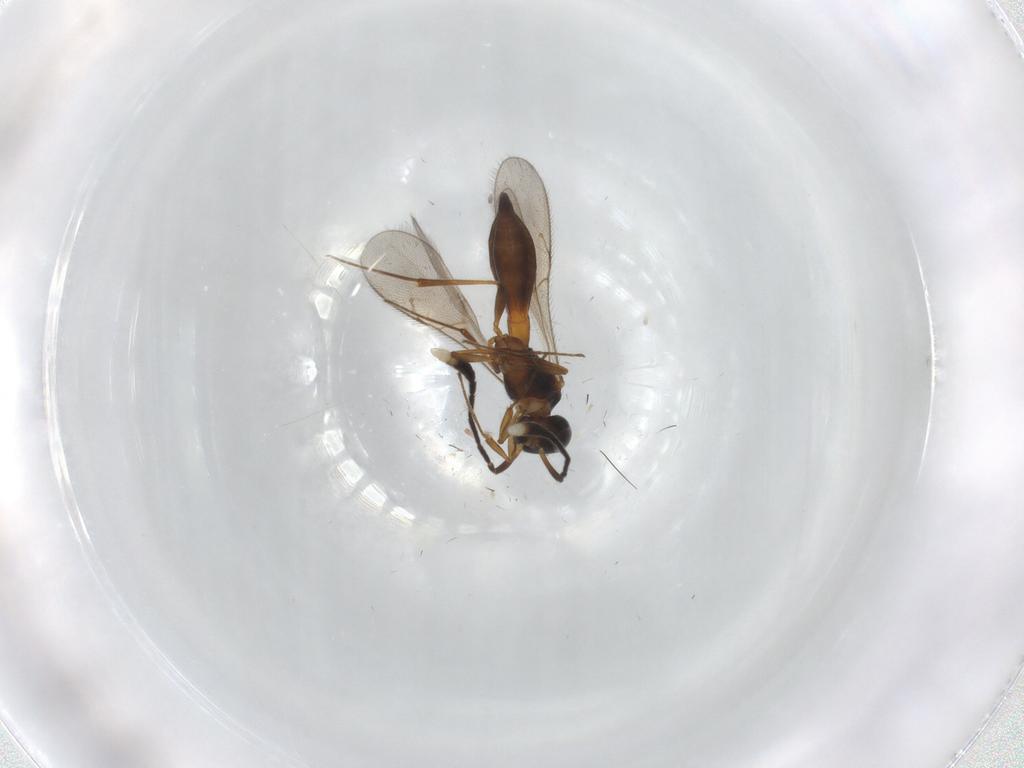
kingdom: Animalia
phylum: Arthropoda
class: Insecta
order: Hymenoptera
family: Scelionidae
